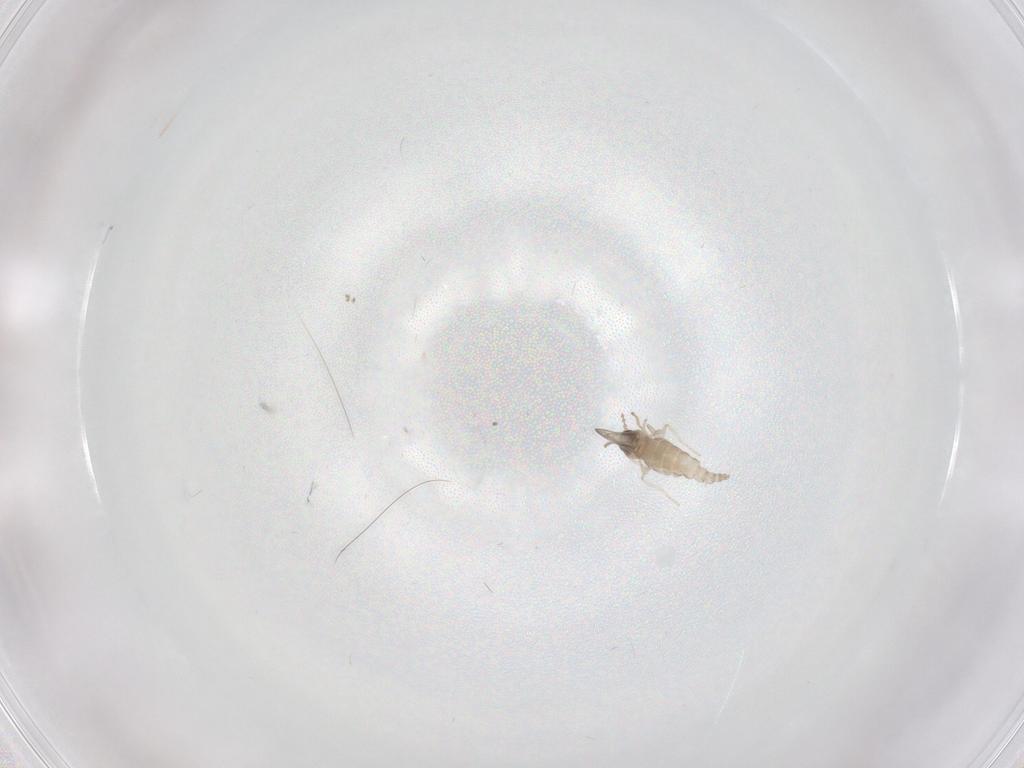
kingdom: Animalia
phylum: Arthropoda
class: Insecta
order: Diptera
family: Cecidomyiidae
